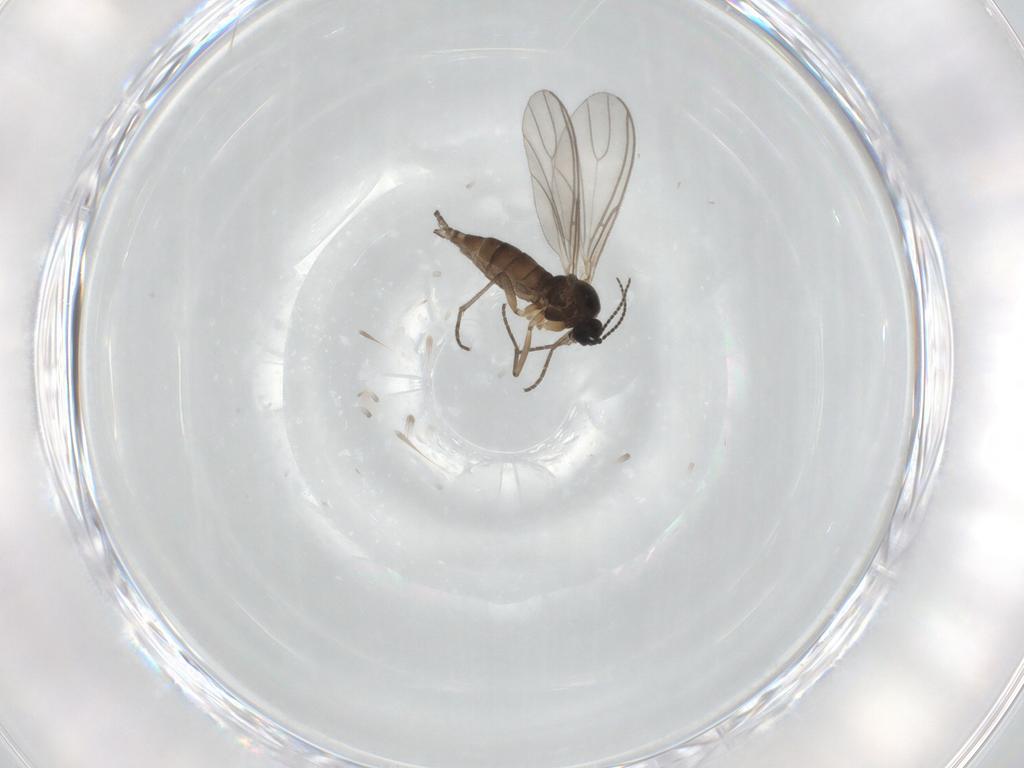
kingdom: Animalia
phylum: Arthropoda
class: Insecta
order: Diptera
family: Sciaridae
